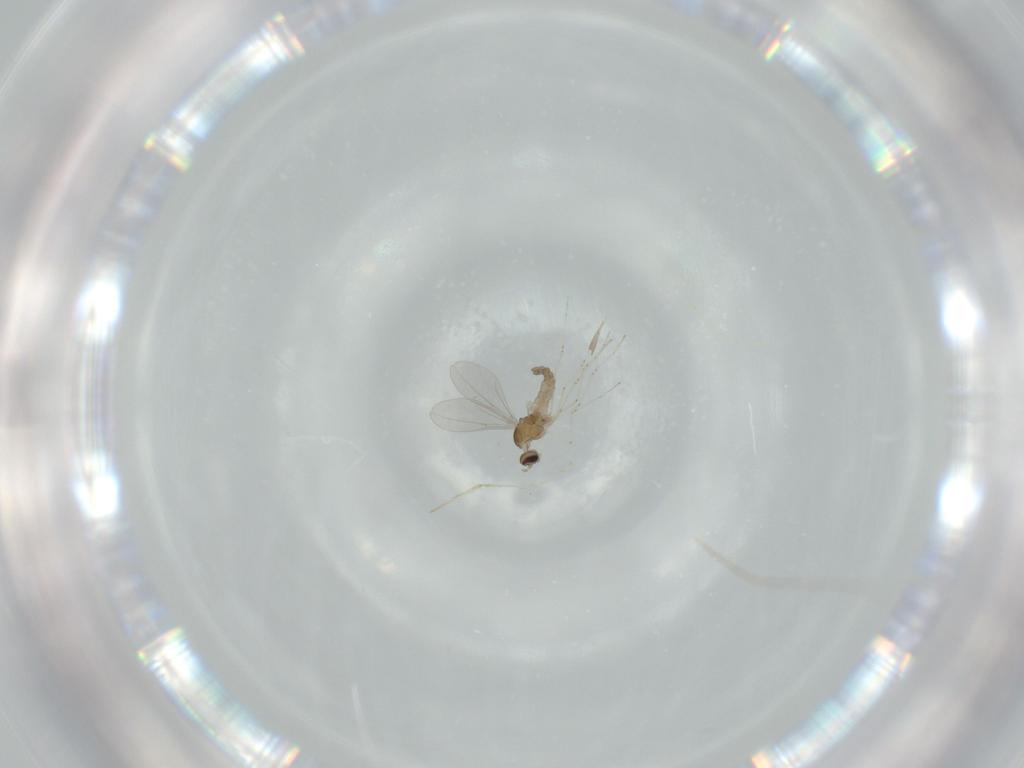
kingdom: Animalia
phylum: Arthropoda
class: Insecta
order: Diptera
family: Cecidomyiidae
